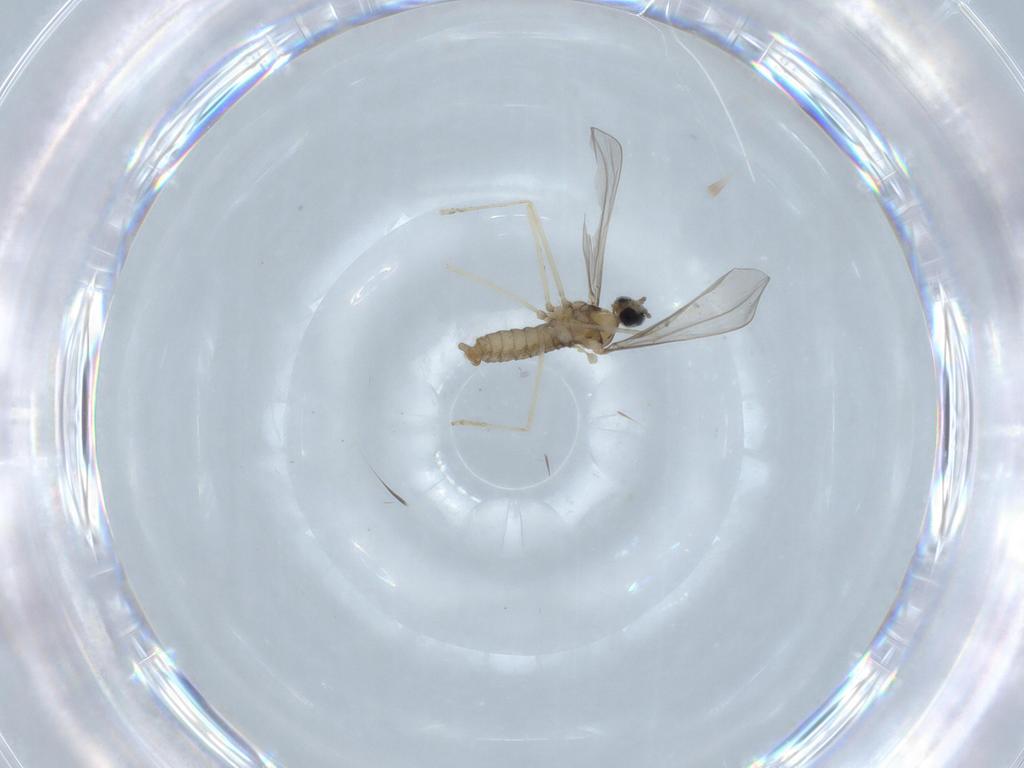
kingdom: Animalia
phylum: Arthropoda
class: Insecta
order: Diptera
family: Cecidomyiidae
